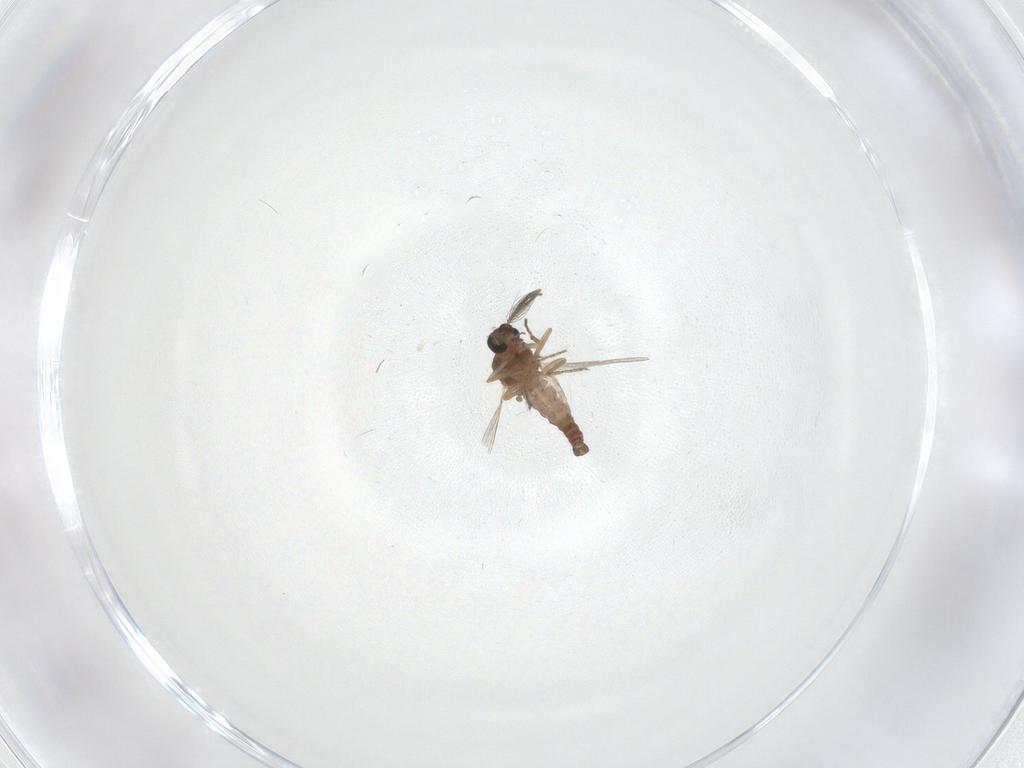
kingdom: Animalia
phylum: Arthropoda
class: Insecta
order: Diptera
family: Ceratopogonidae
